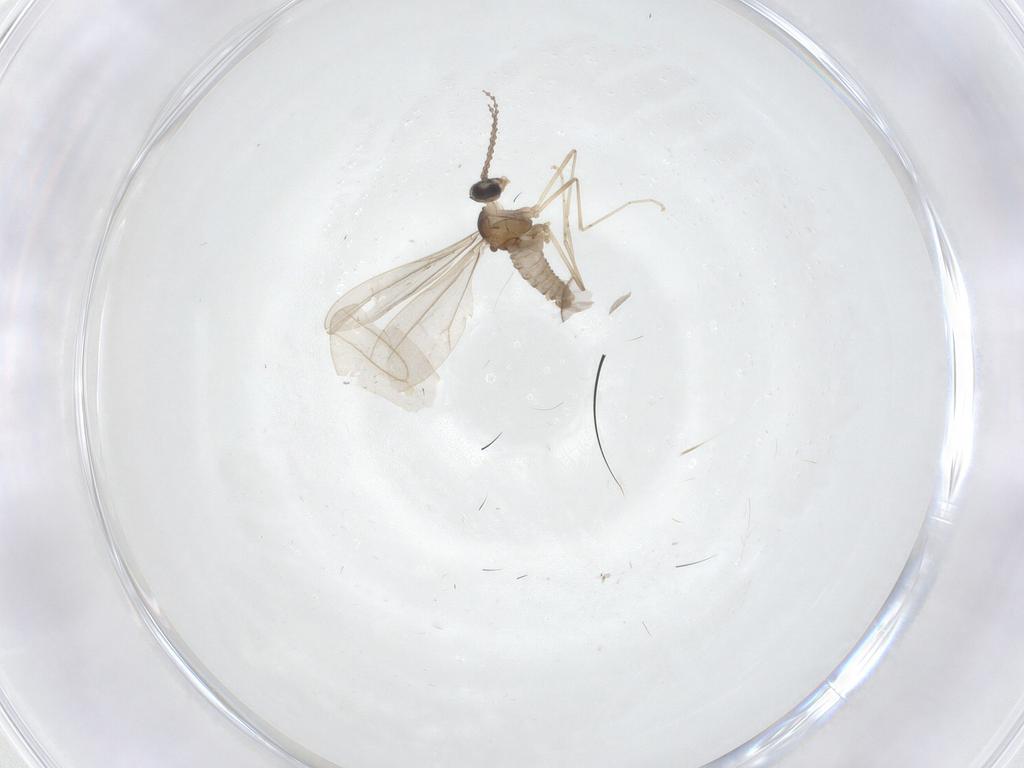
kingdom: Animalia
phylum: Arthropoda
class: Insecta
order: Diptera
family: Cecidomyiidae
